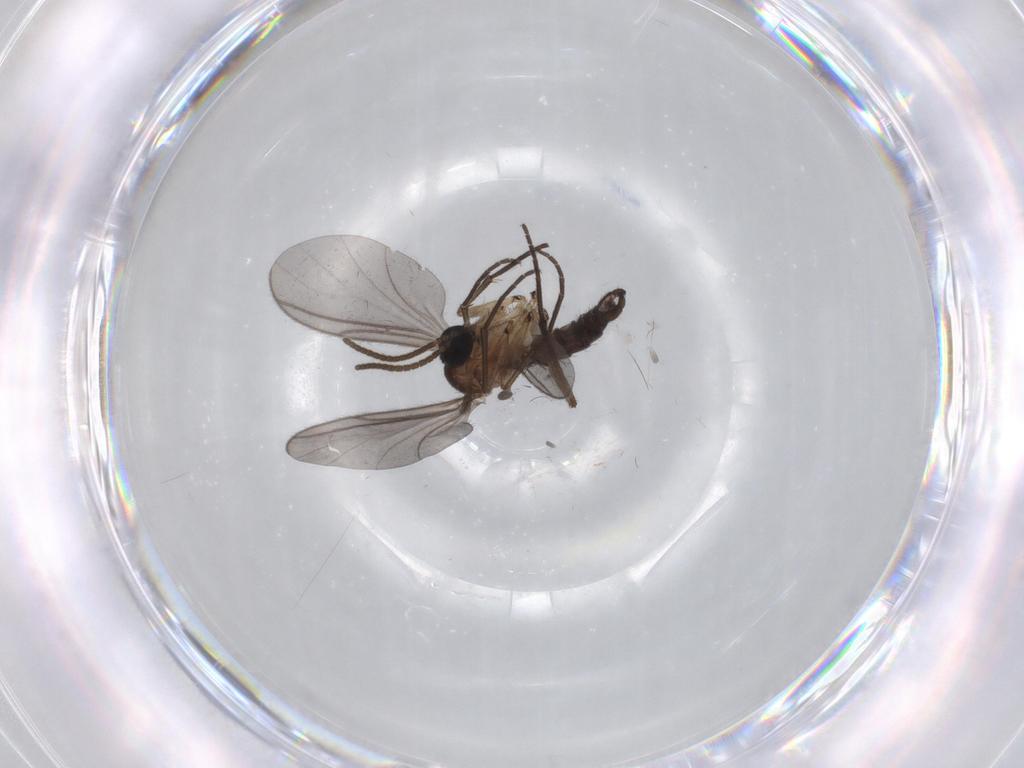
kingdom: Animalia
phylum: Arthropoda
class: Insecta
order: Diptera
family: Sciaridae
